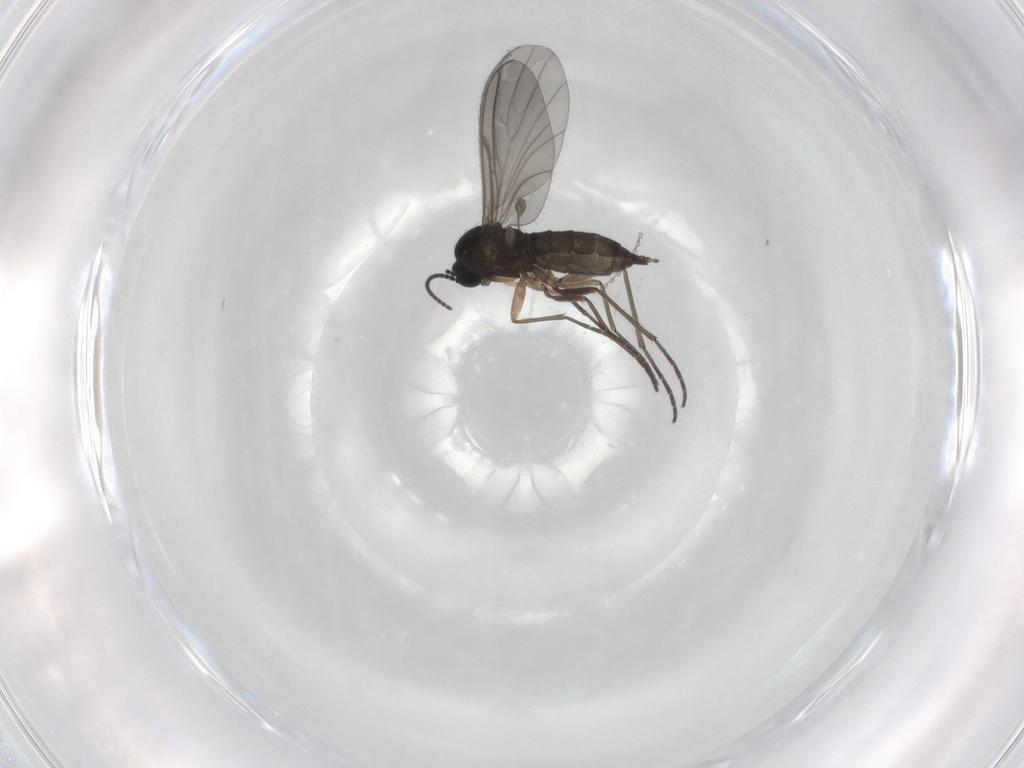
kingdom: Animalia
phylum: Arthropoda
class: Insecta
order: Diptera
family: Sciaridae
